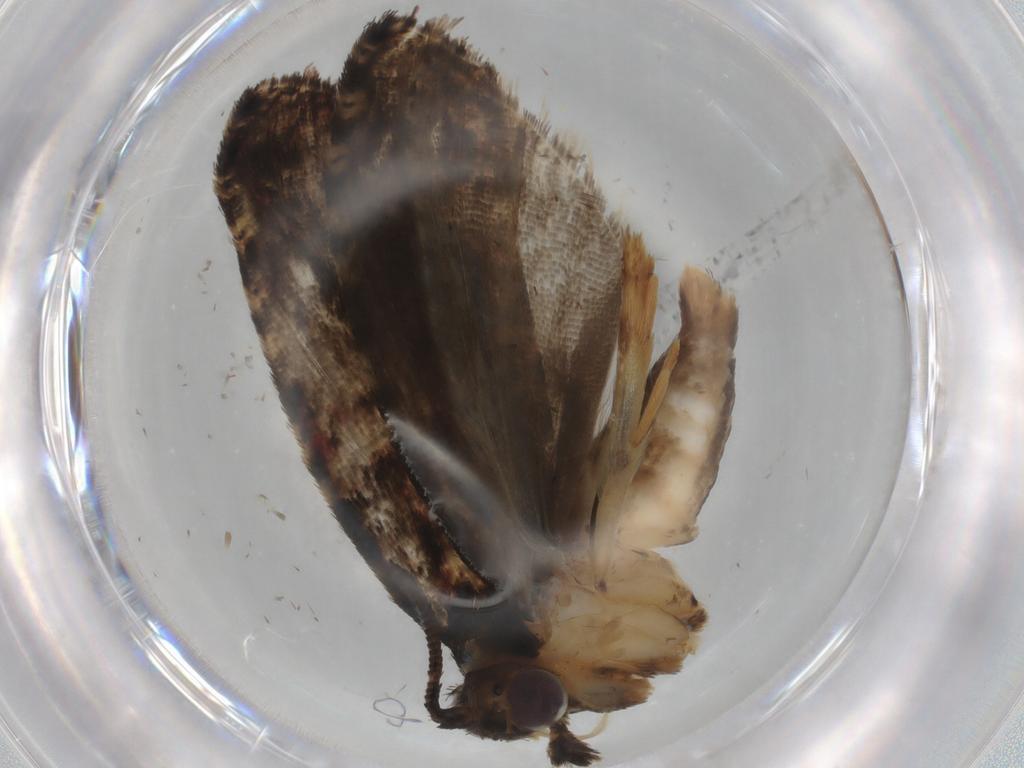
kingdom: Animalia
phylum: Arthropoda
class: Insecta
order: Lepidoptera
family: Tortricidae
